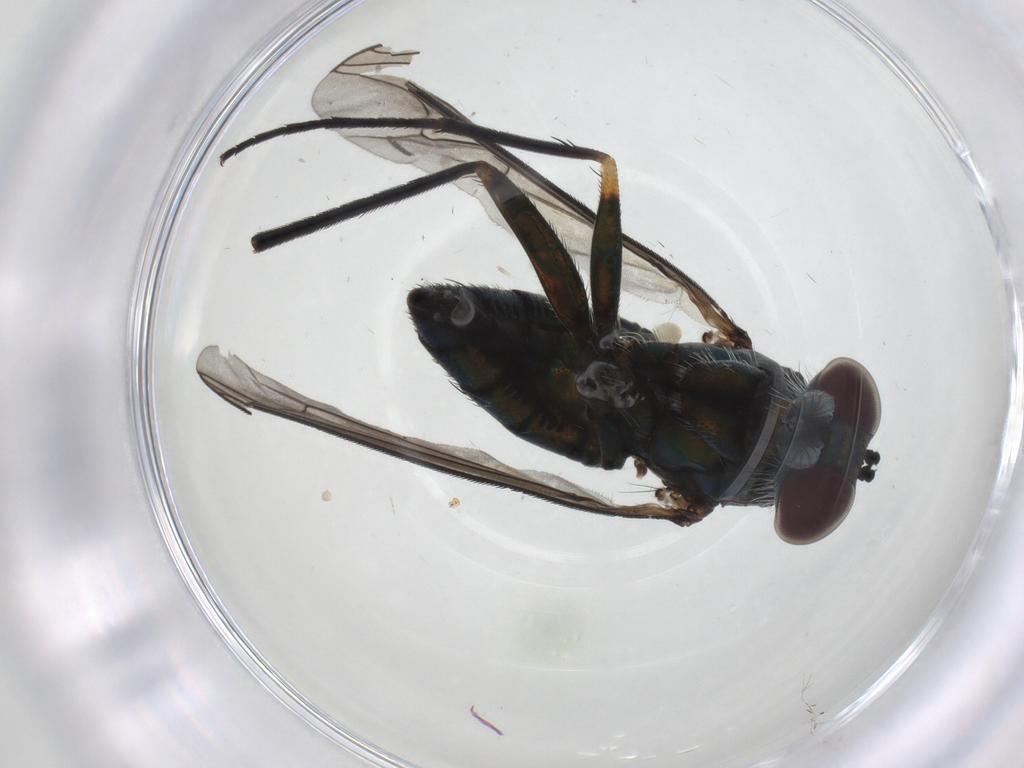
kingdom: Animalia
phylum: Arthropoda
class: Insecta
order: Diptera
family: Dolichopodidae
